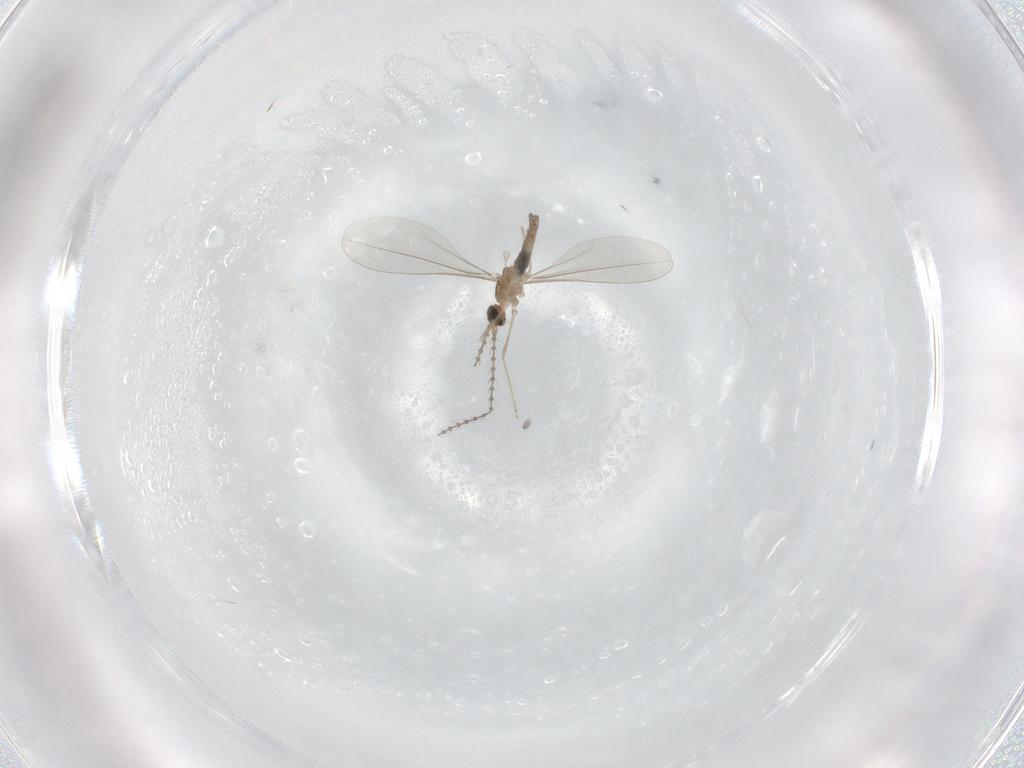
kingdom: Animalia
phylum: Arthropoda
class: Insecta
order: Diptera
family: Cecidomyiidae
